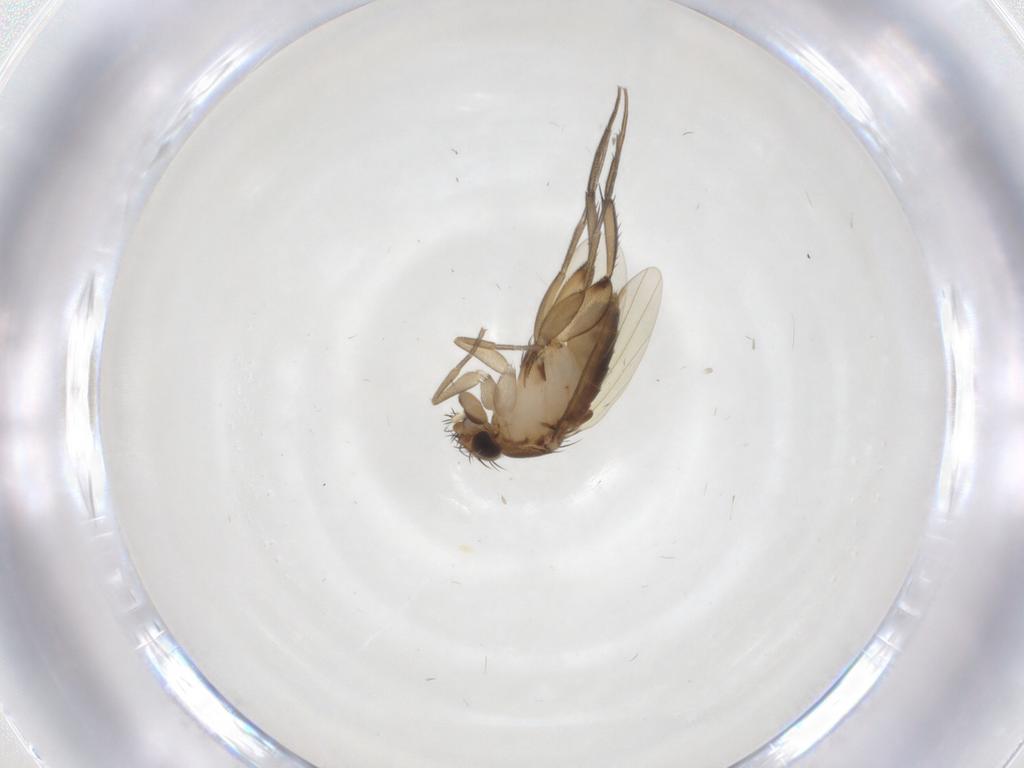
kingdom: Animalia
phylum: Arthropoda
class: Insecta
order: Diptera
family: Phoridae
